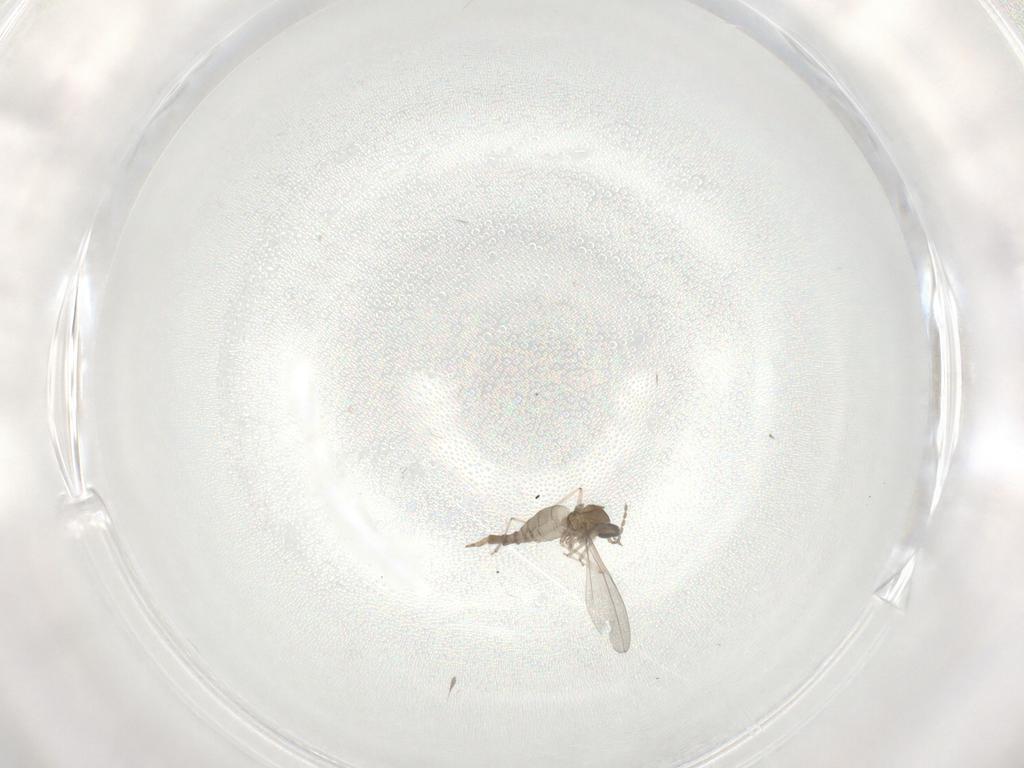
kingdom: Animalia
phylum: Arthropoda
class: Insecta
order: Diptera
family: Cecidomyiidae
